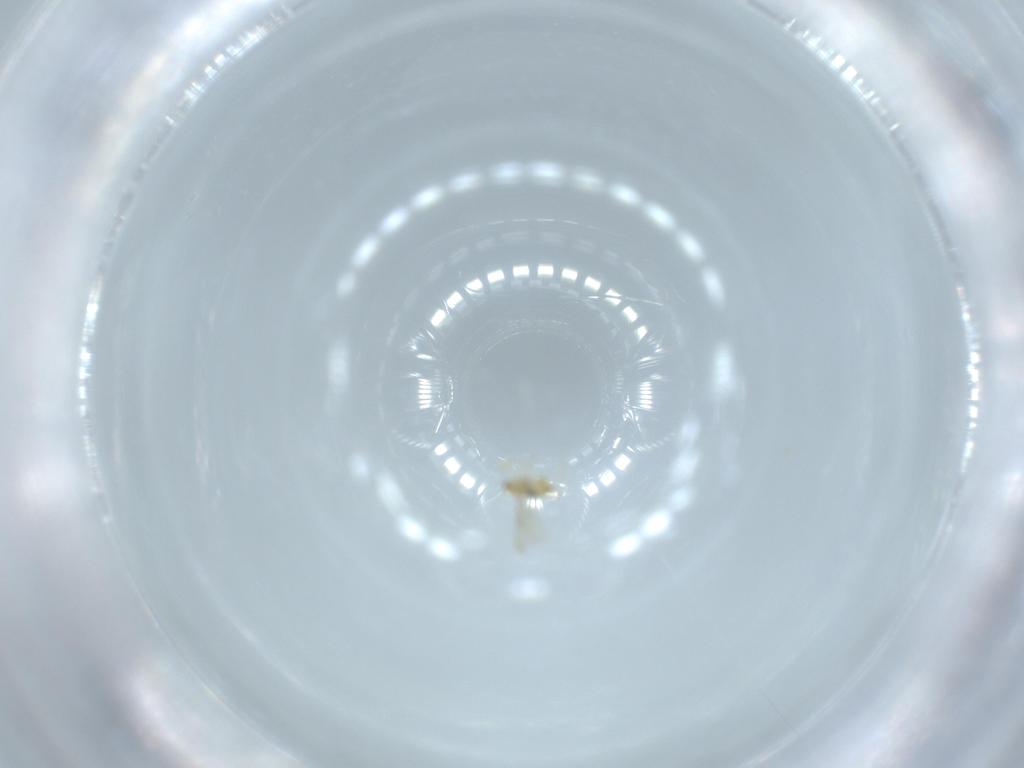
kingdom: Animalia
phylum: Arthropoda
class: Insecta
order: Hymenoptera
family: Aphelinidae
